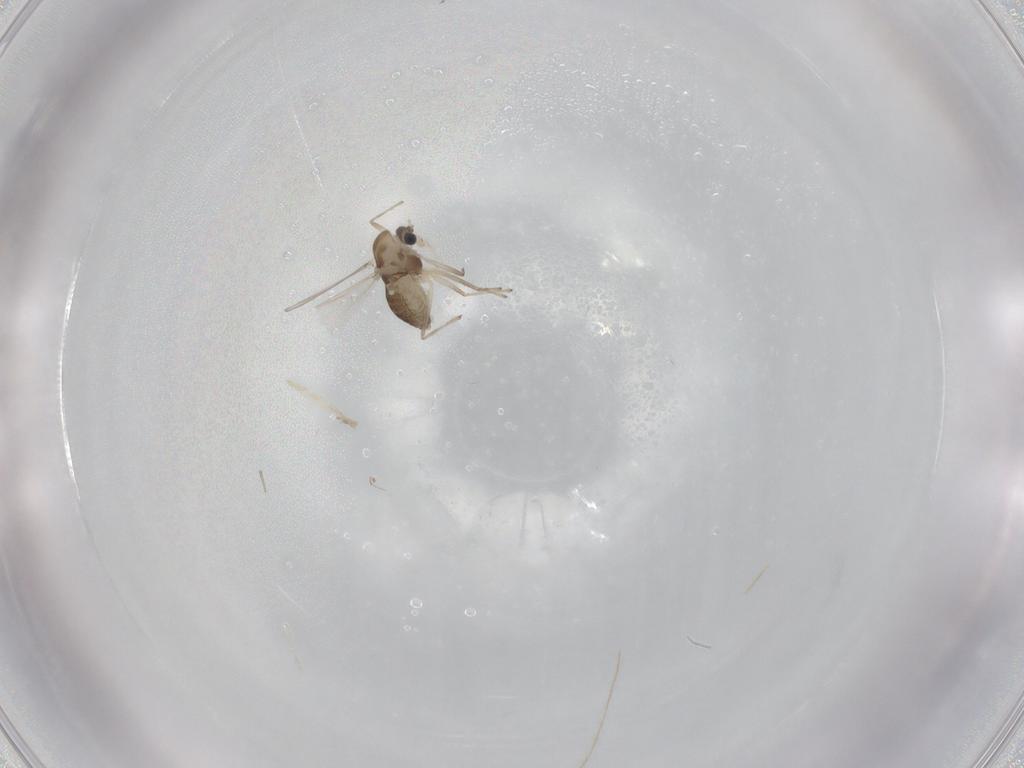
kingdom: Animalia
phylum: Arthropoda
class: Insecta
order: Diptera
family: Chironomidae
